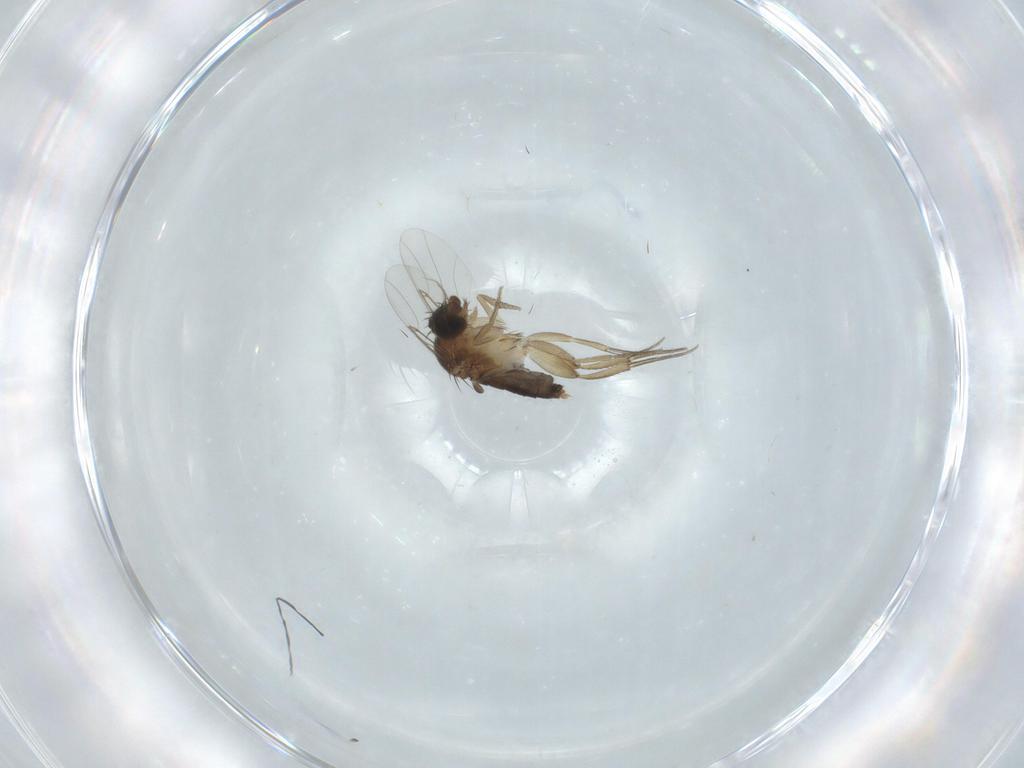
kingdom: Animalia
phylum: Arthropoda
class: Insecta
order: Diptera
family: Phoridae
